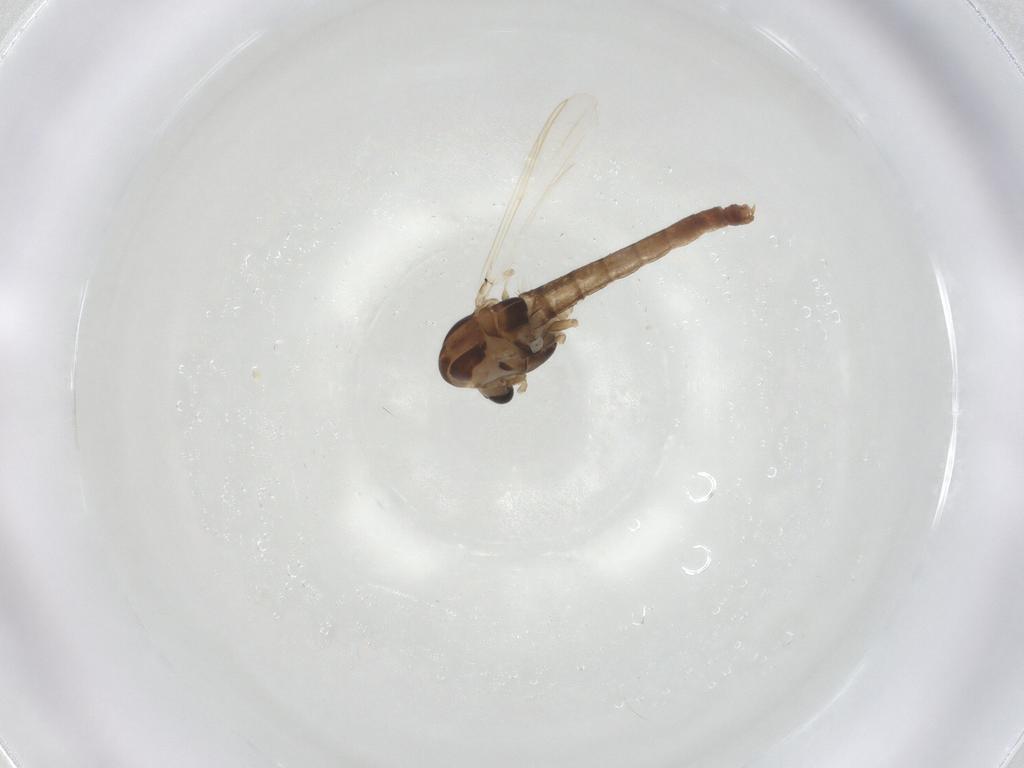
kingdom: Animalia
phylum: Arthropoda
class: Insecta
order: Diptera
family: Chironomidae
